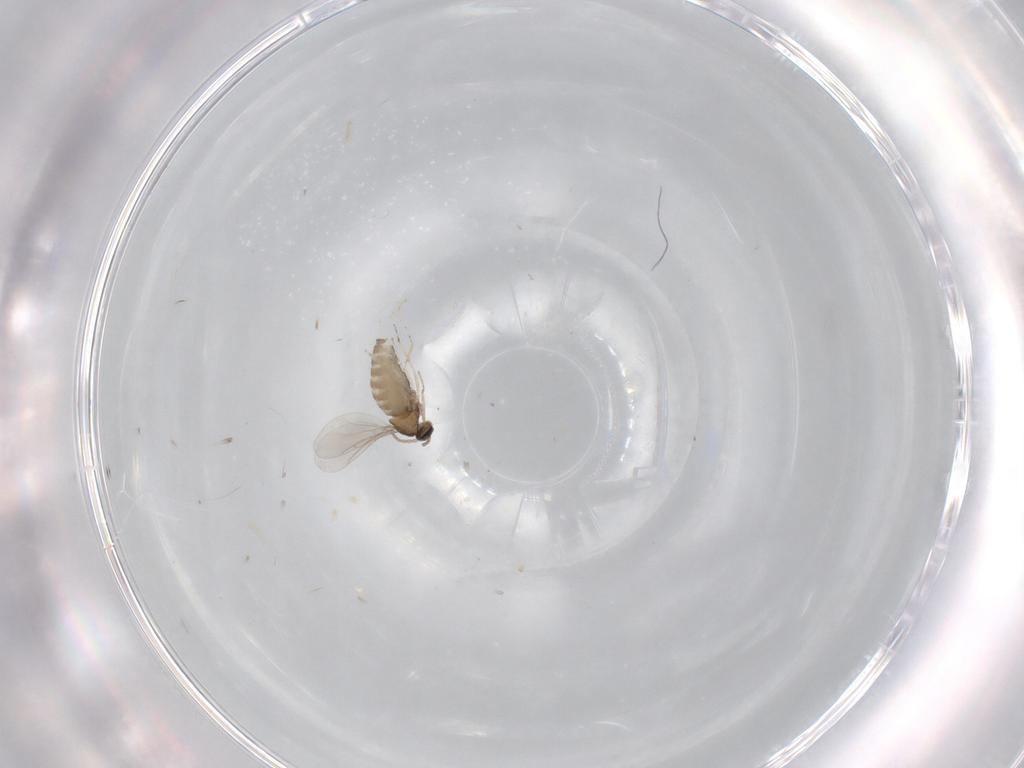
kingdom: Animalia
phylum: Arthropoda
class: Insecta
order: Diptera
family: Cecidomyiidae
